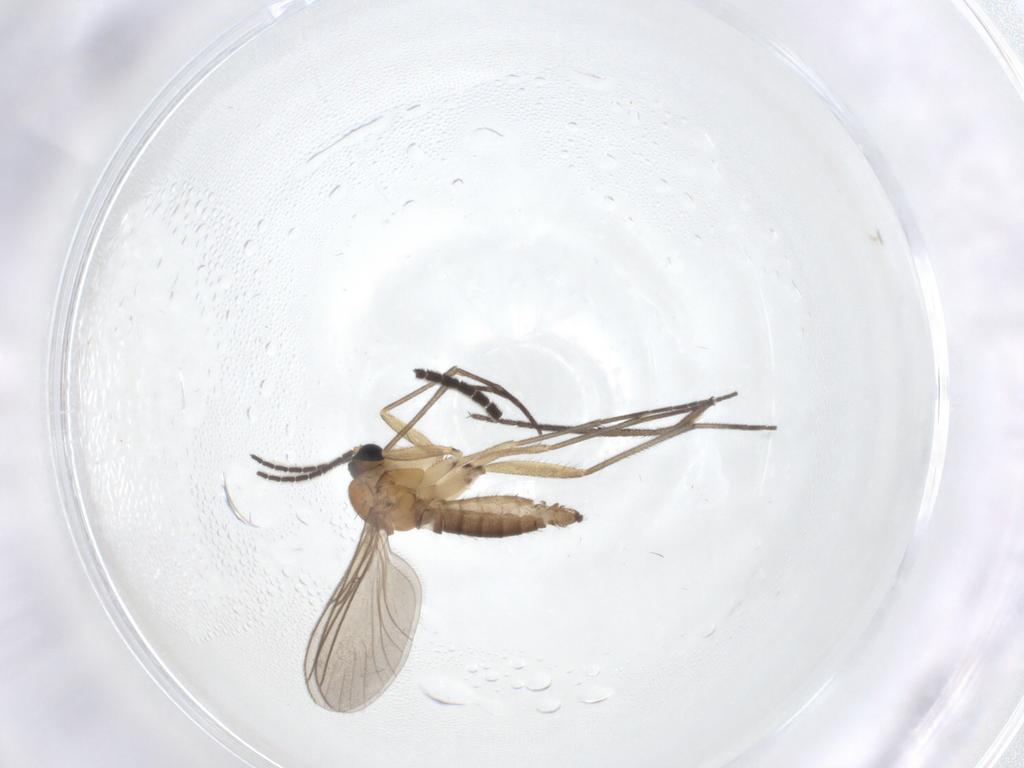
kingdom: Animalia
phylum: Arthropoda
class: Insecta
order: Diptera
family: Sciaridae
